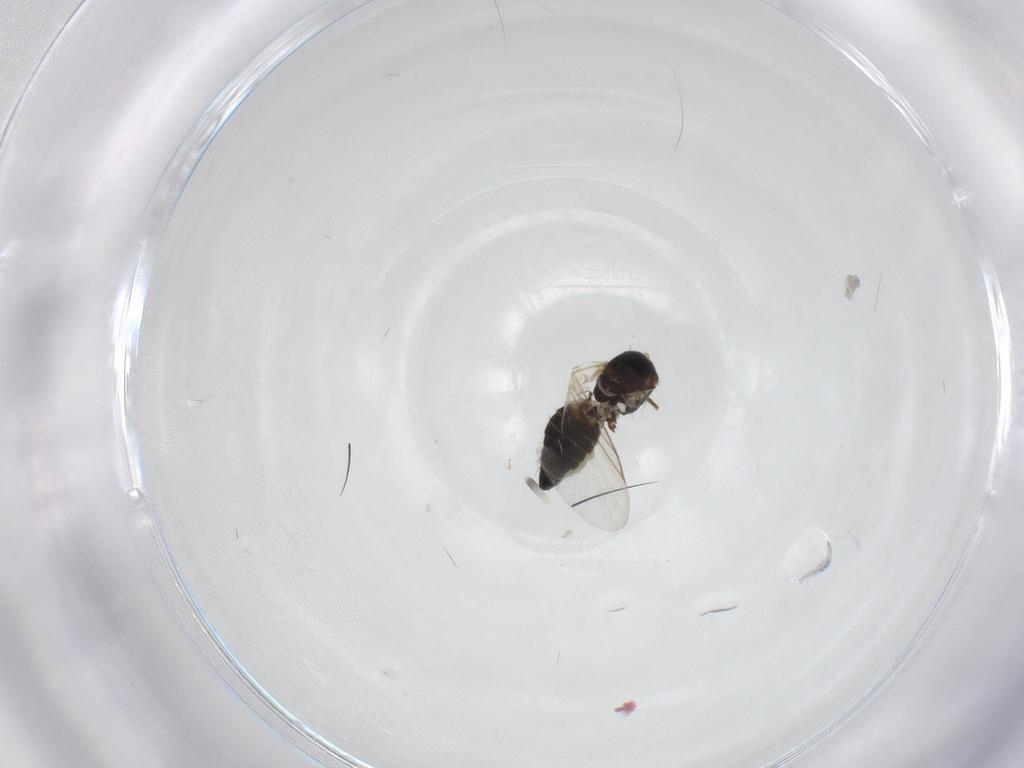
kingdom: Animalia
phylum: Arthropoda
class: Insecta
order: Diptera
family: Agromyzidae
